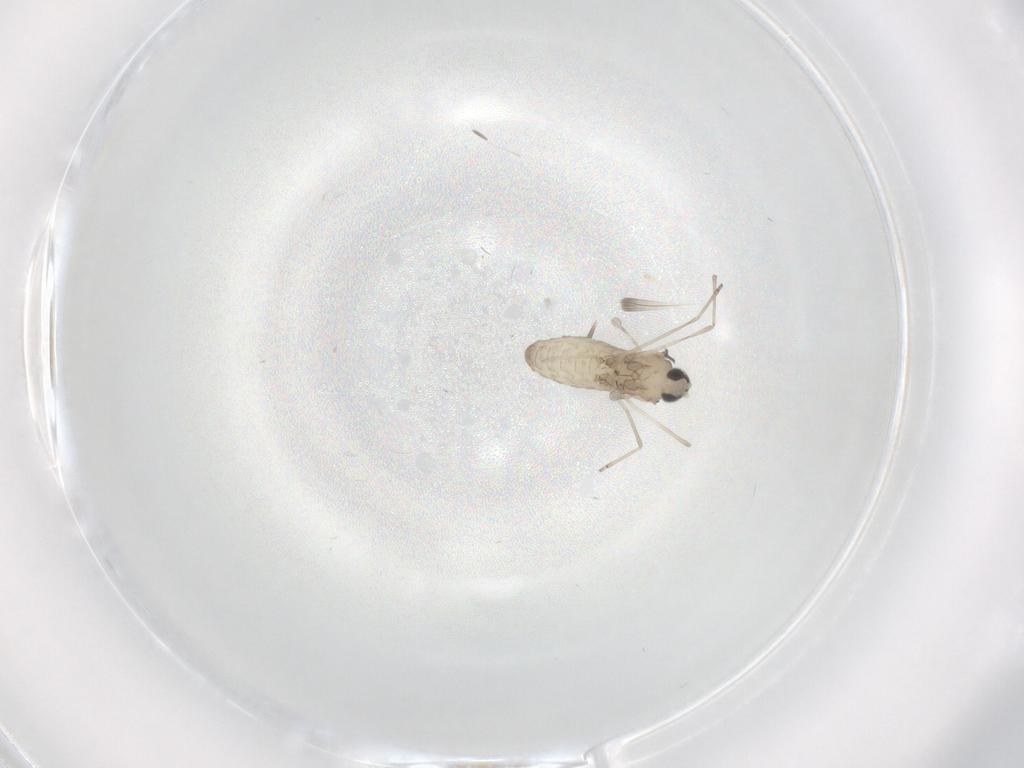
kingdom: Animalia
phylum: Arthropoda
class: Insecta
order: Diptera
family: Cecidomyiidae
